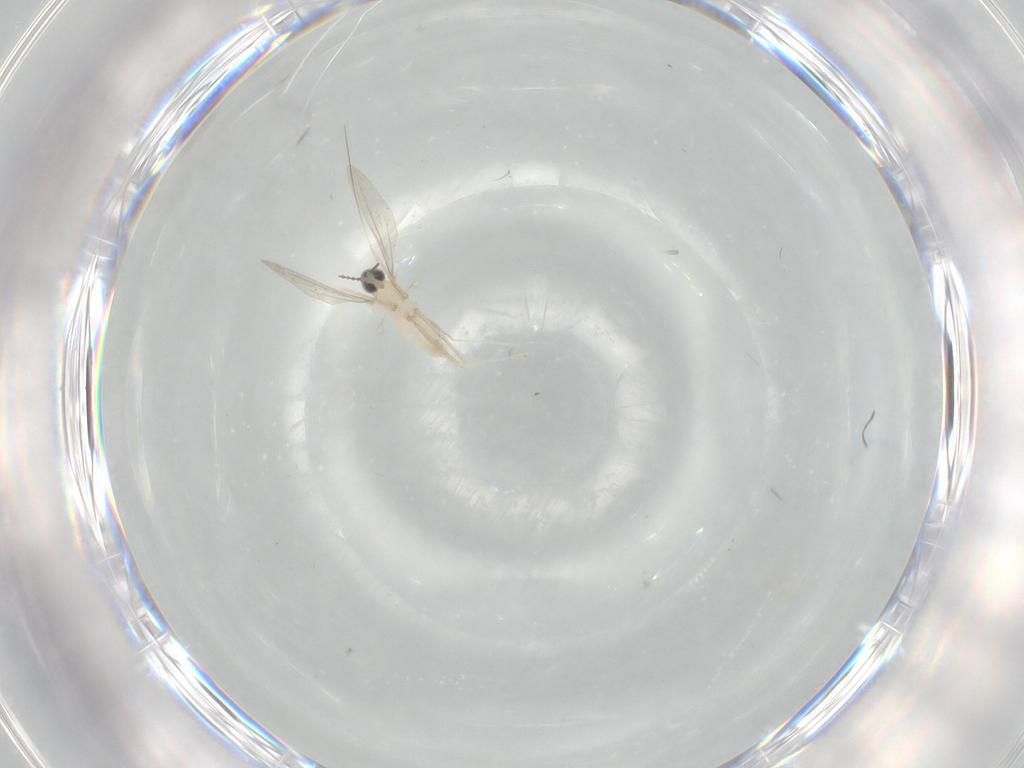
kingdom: Animalia
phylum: Arthropoda
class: Insecta
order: Diptera
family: Cecidomyiidae
